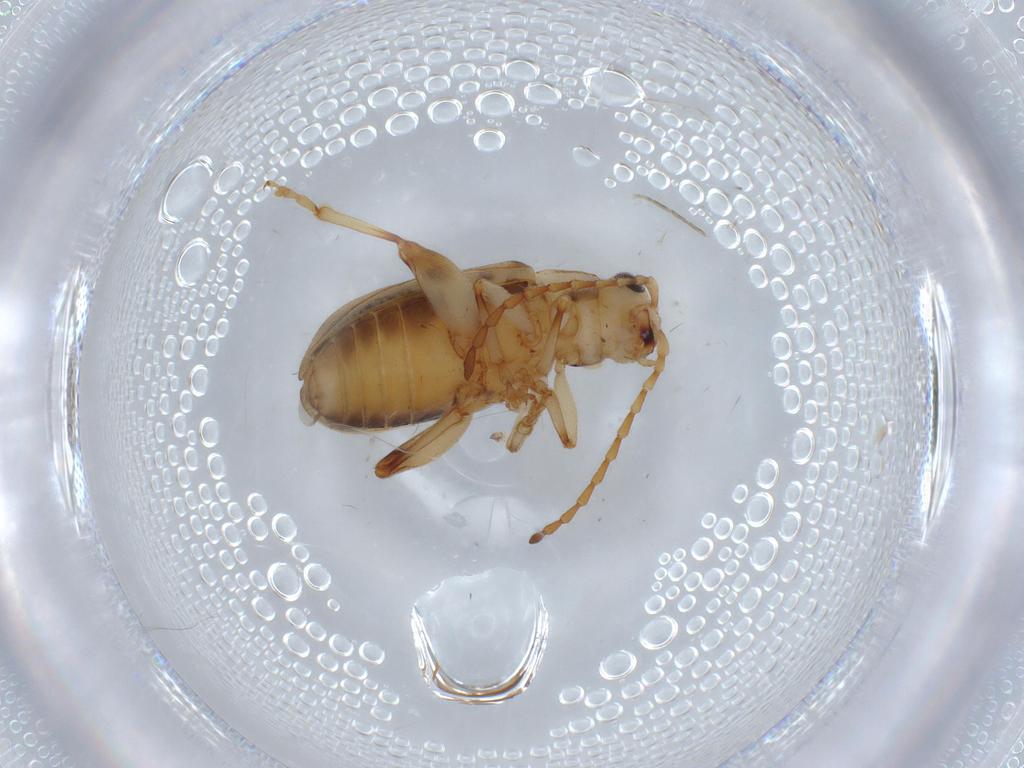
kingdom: Animalia
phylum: Arthropoda
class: Insecta
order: Coleoptera
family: Chrysomelidae
